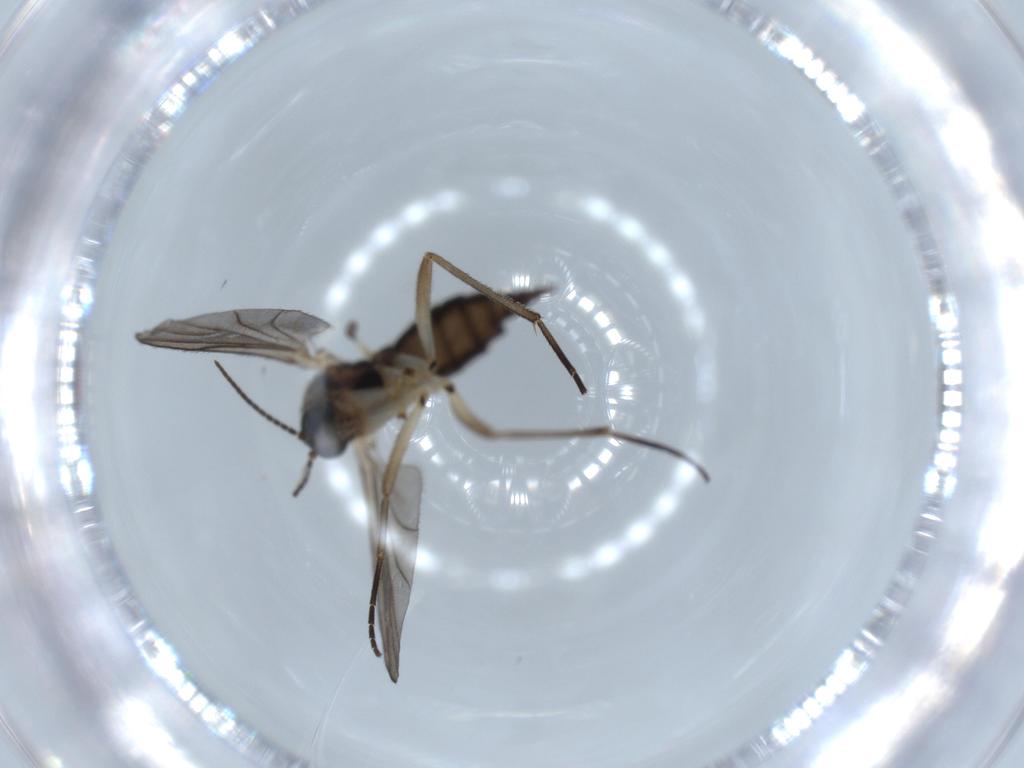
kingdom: Animalia
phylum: Arthropoda
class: Insecta
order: Diptera
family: Sciaridae
